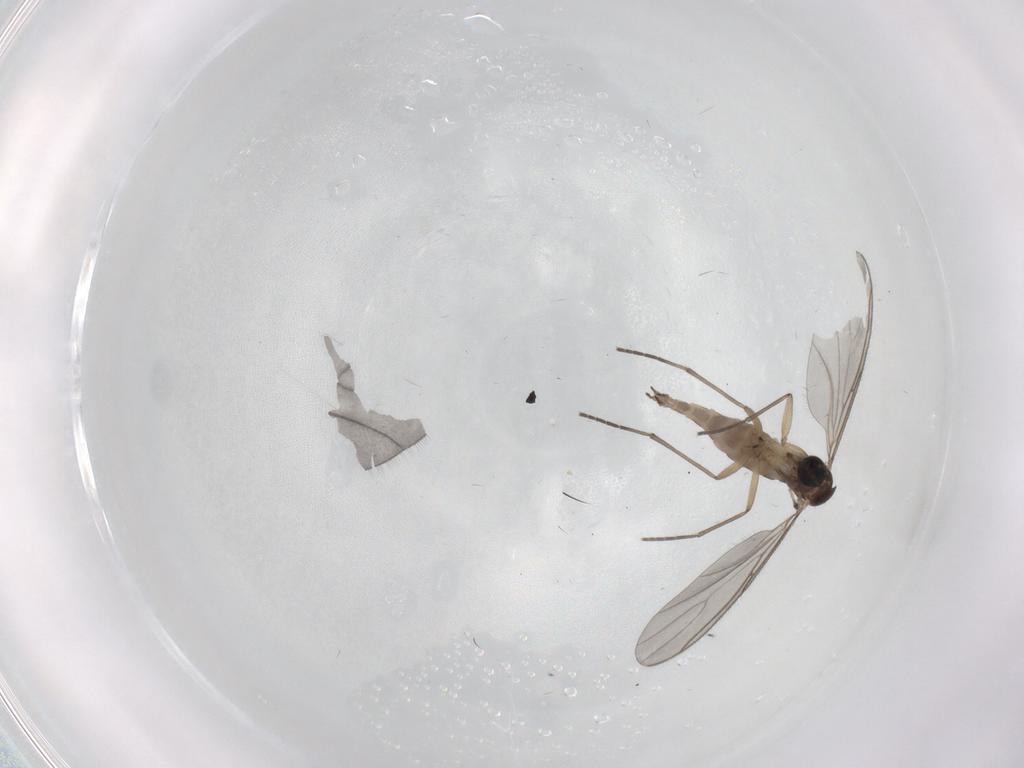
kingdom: Animalia
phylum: Arthropoda
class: Insecta
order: Diptera
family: Sciaridae
